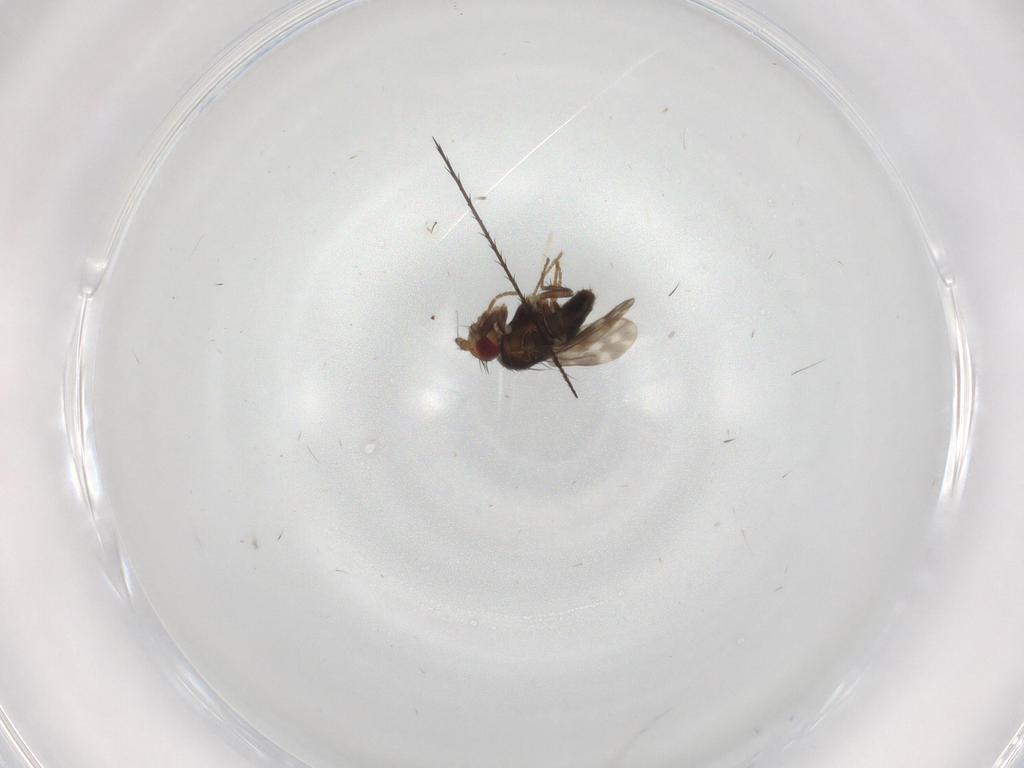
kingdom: Animalia
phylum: Arthropoda
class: Insecta
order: Diptera
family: Sphaeroceridae
